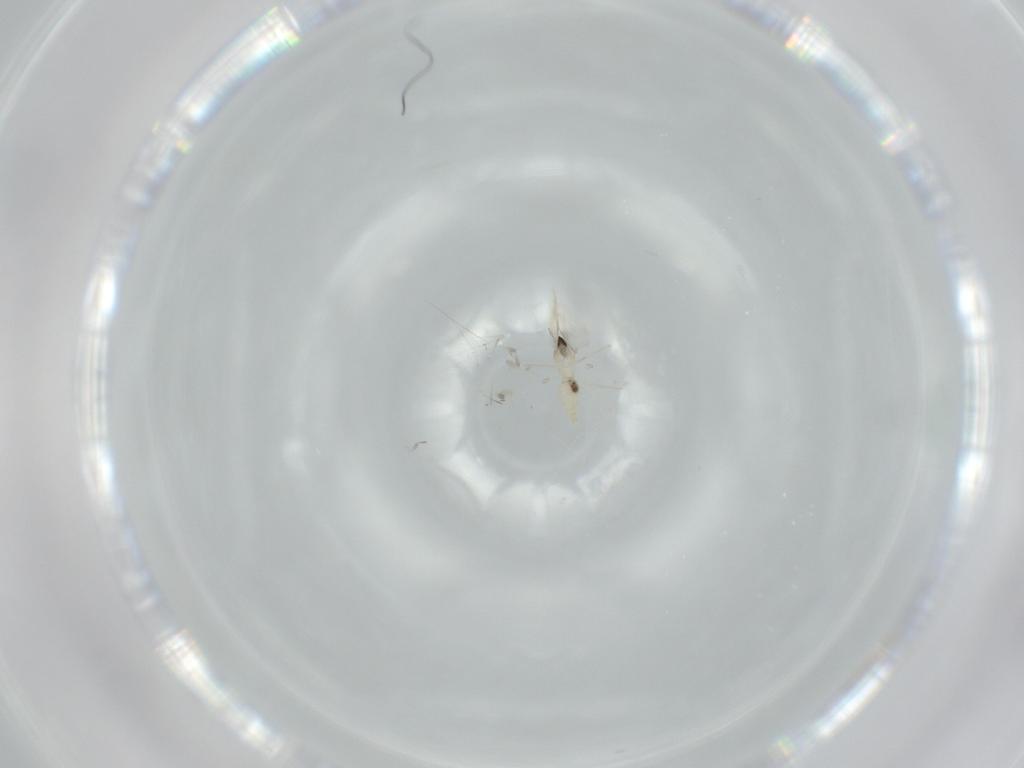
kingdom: Animalia
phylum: Arthropoda
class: Insecta
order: Diptera
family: Cecidomyiidae
